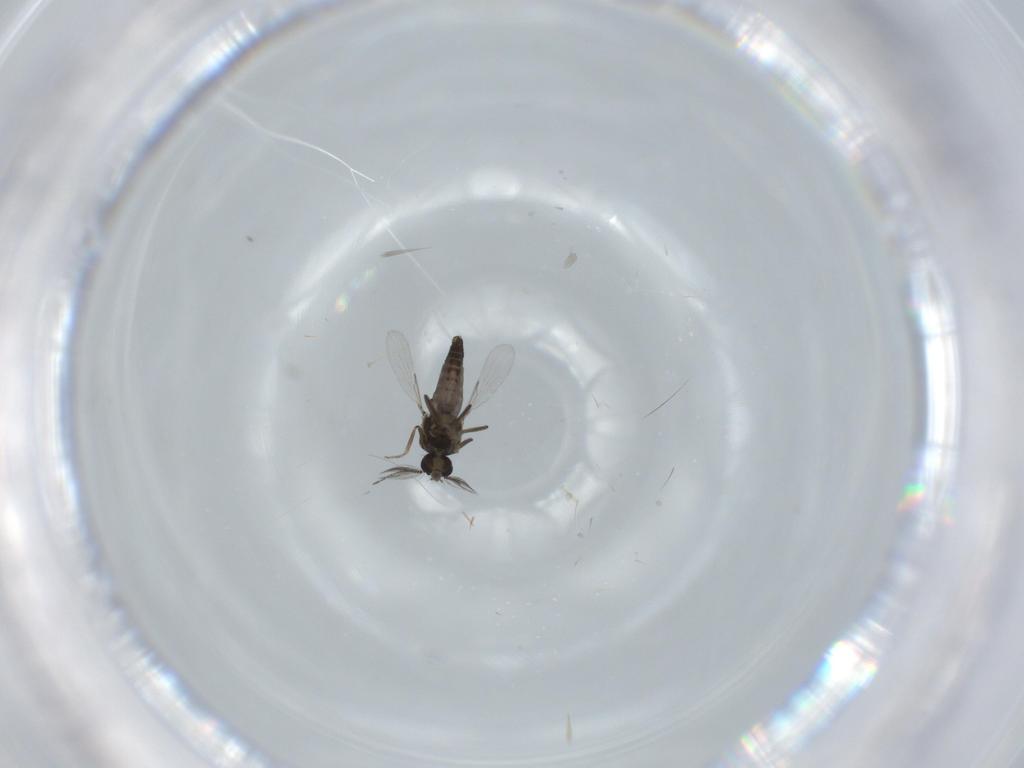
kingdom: Animalia
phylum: Arthropoda
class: Insecta
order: Diptera
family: Ceratopogonidae
